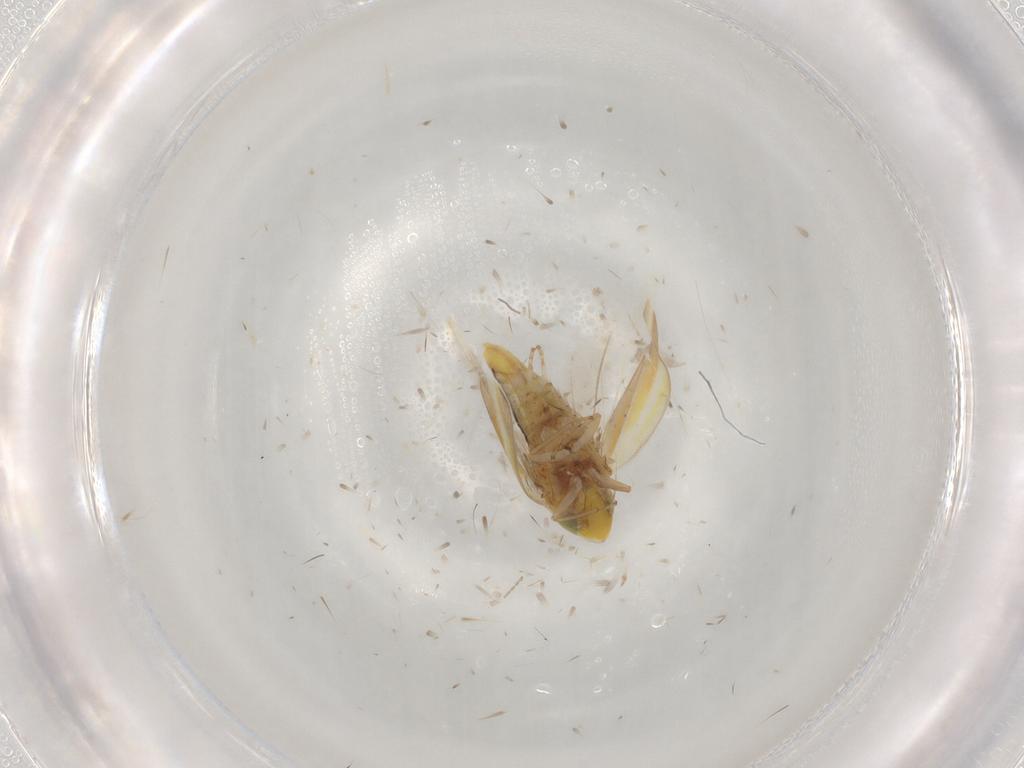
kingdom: Animalia
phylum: Arthropoda
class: Insecta
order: Hemiptera
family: Cicadellidae
